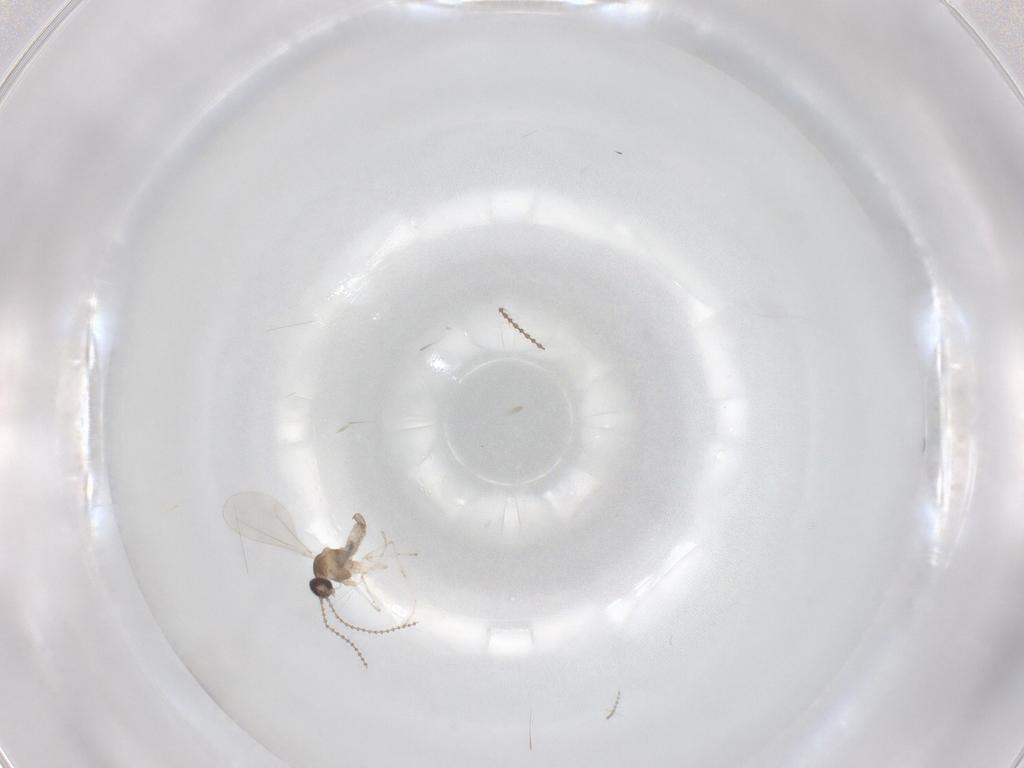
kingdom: Animalia
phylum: Arthropoda
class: Insecta
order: Diptera
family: Cecidomyiidae
